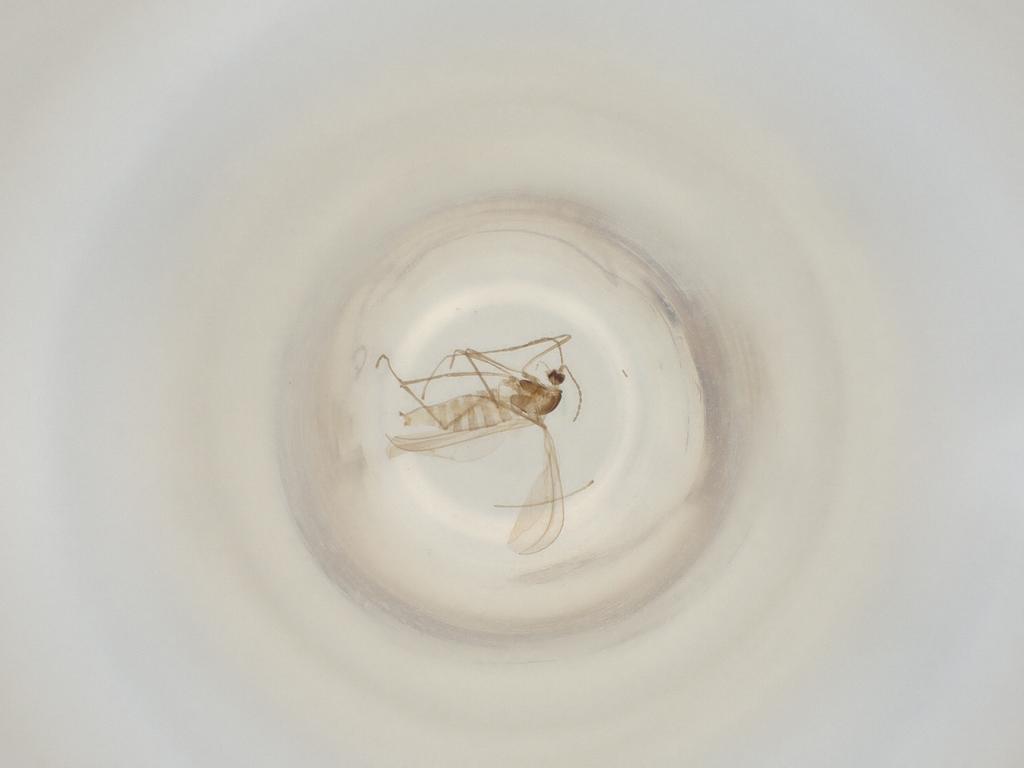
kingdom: Animalia
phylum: Arthropoda
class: Insecta
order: Diptera
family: Cecidomyiidae
